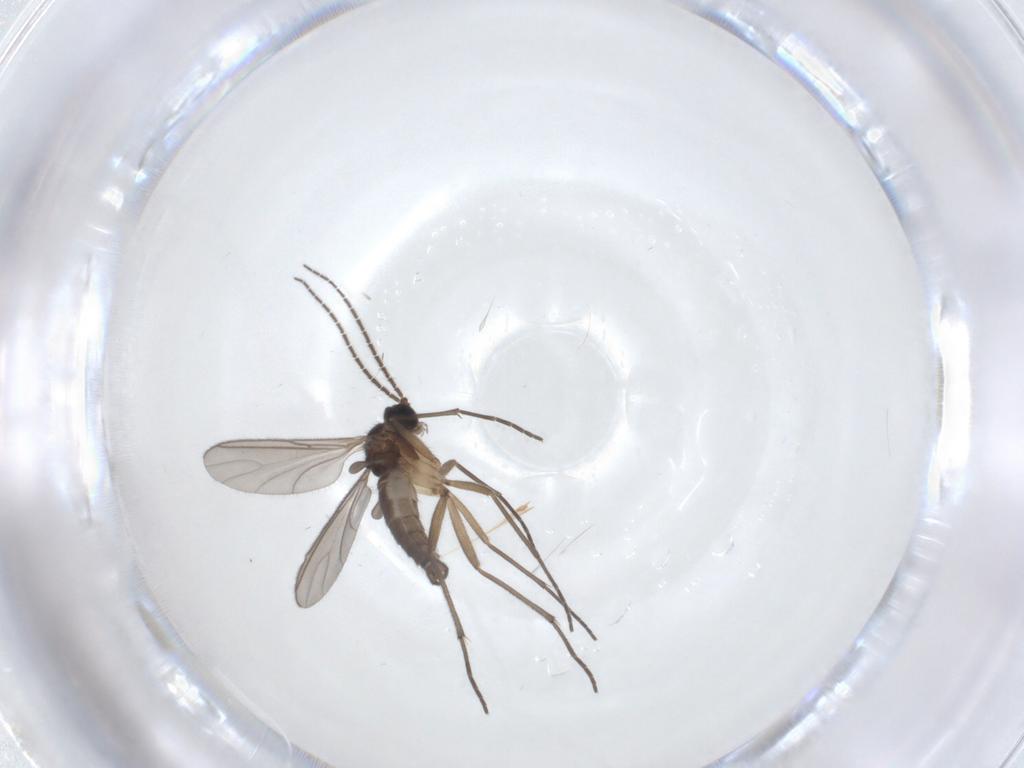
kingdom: Animalia
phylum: Arthropoda
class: Insecta
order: Diptera
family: Sciaridae
